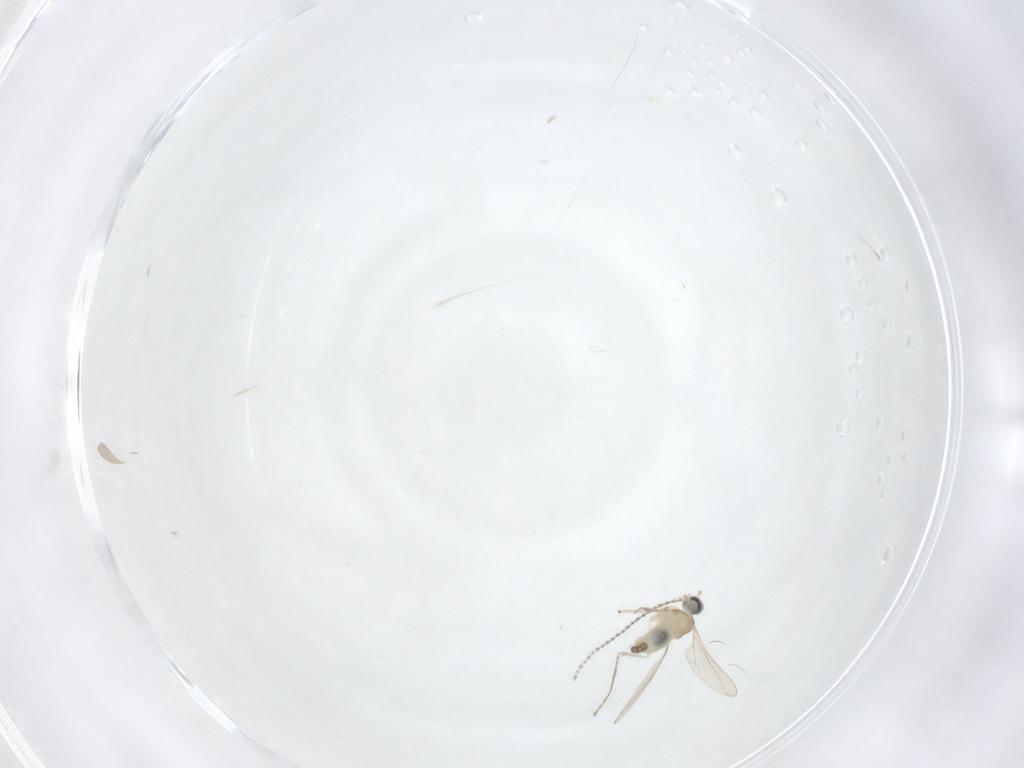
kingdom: Animalia
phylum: Arthropoda
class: Insecta
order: Diptera
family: Phoridae
